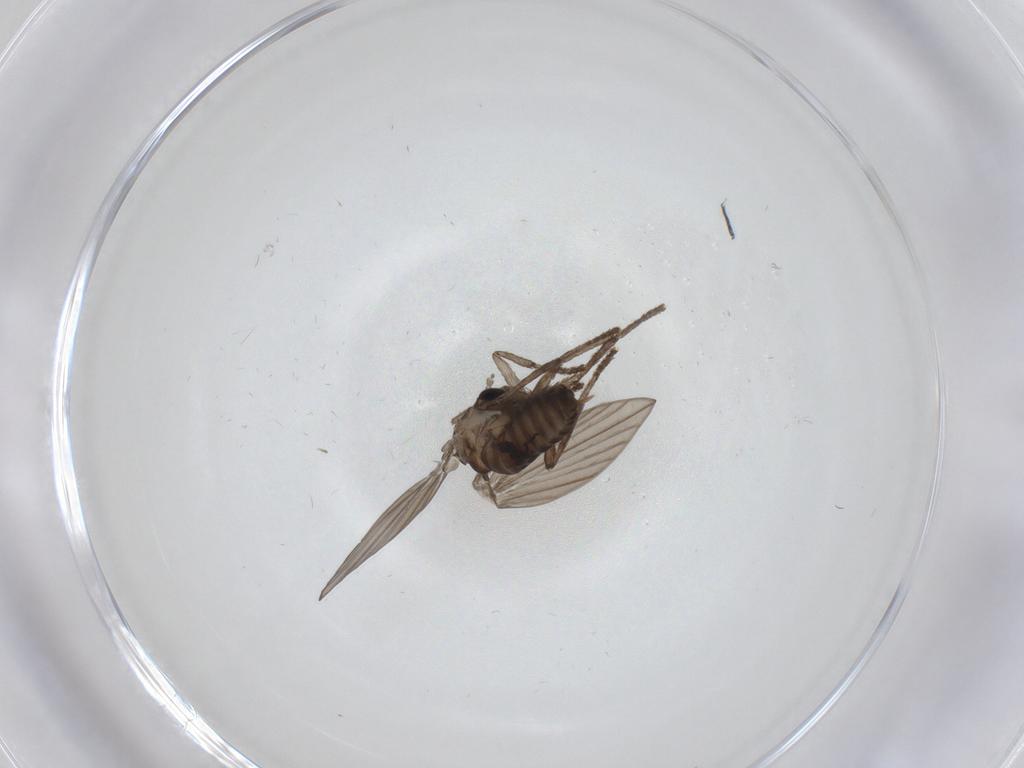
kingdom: Animalia
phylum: Arthropoda
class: Insecta
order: Diptera
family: Psychodidae
